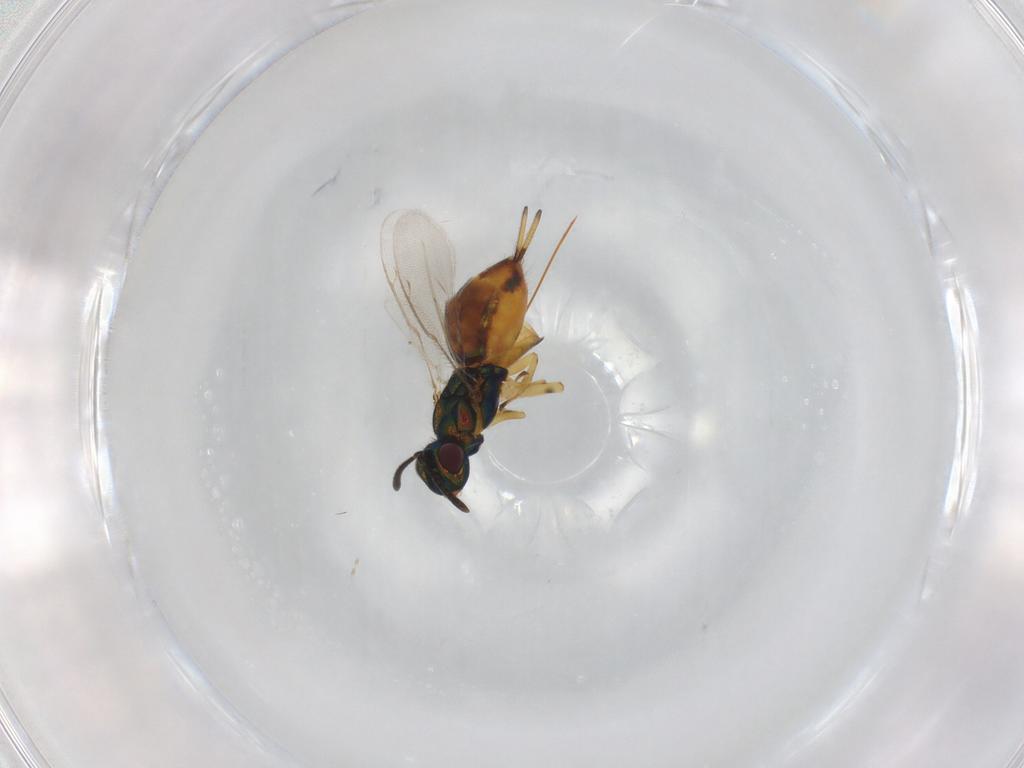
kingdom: Animalia
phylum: Arthropoda
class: Insecta
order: Hymenoptera
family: Eupelmidae
